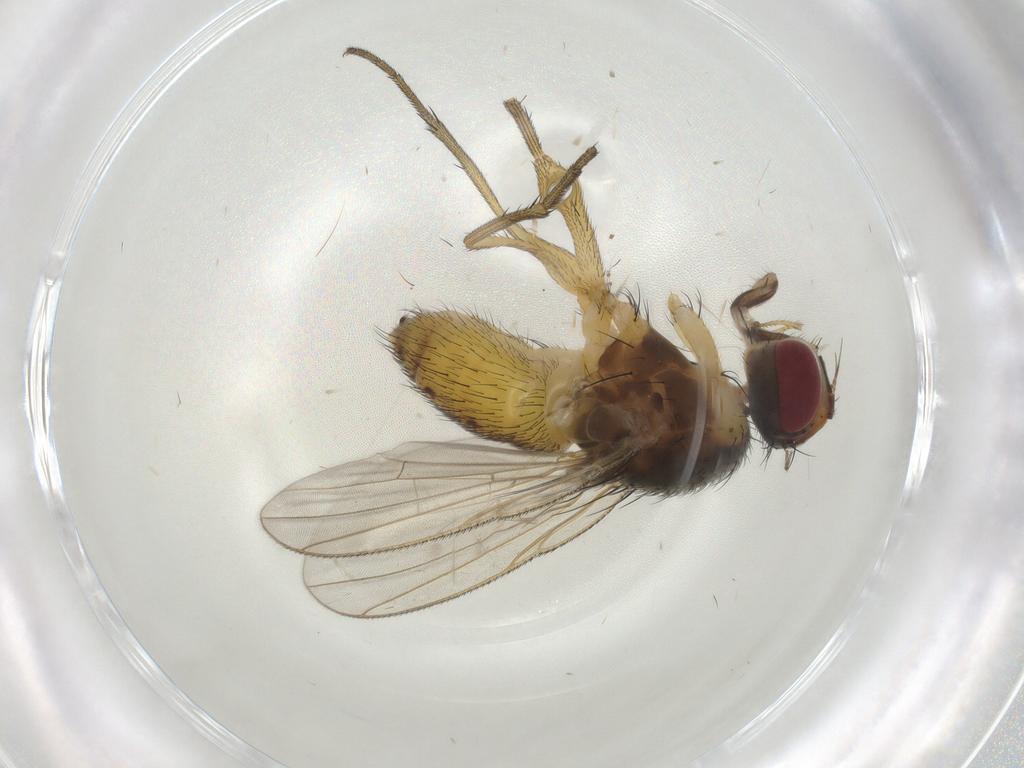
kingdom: Animalia
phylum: Arthropoda
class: Insecta
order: Diptera
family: Muscidae
